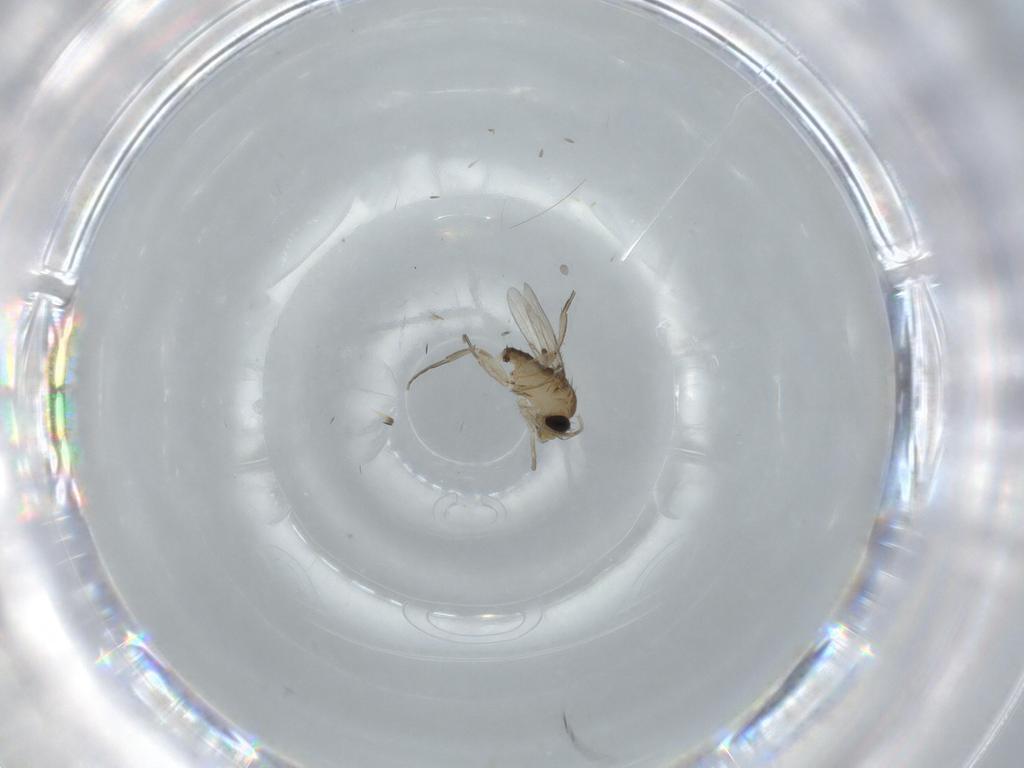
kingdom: Animalia
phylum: Arthropoda
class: Insecta
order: Diptera
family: Phoridae
